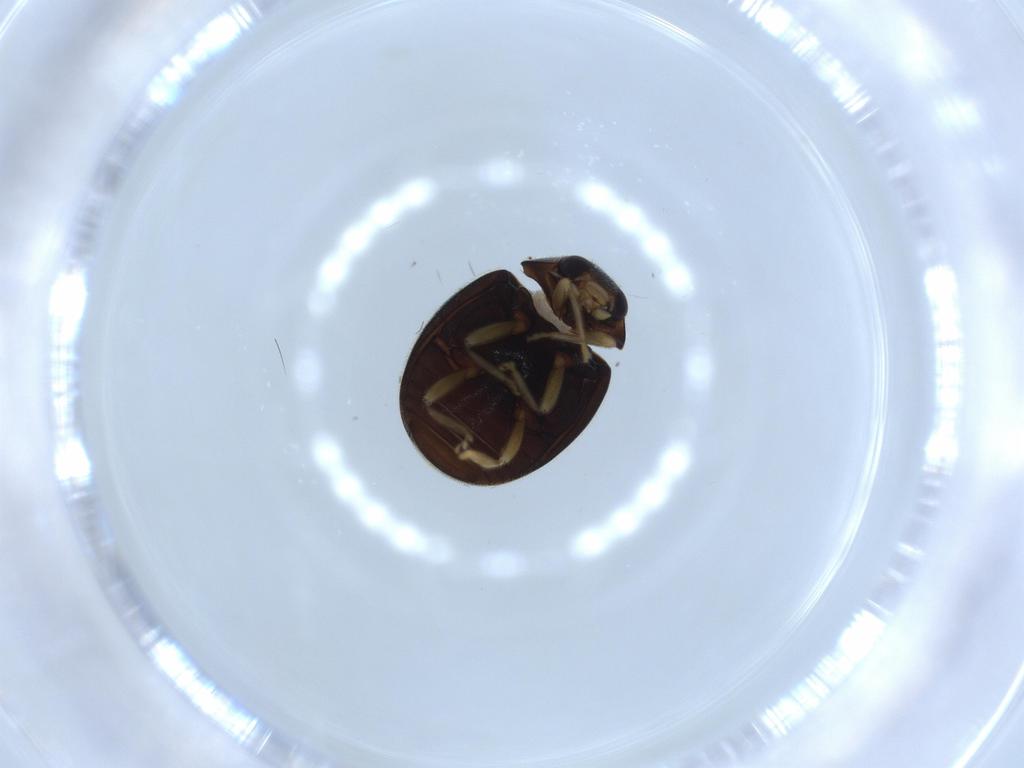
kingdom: Animalia
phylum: Arthropoda
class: Insecta
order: Coleoptera
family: Coccinellidae
